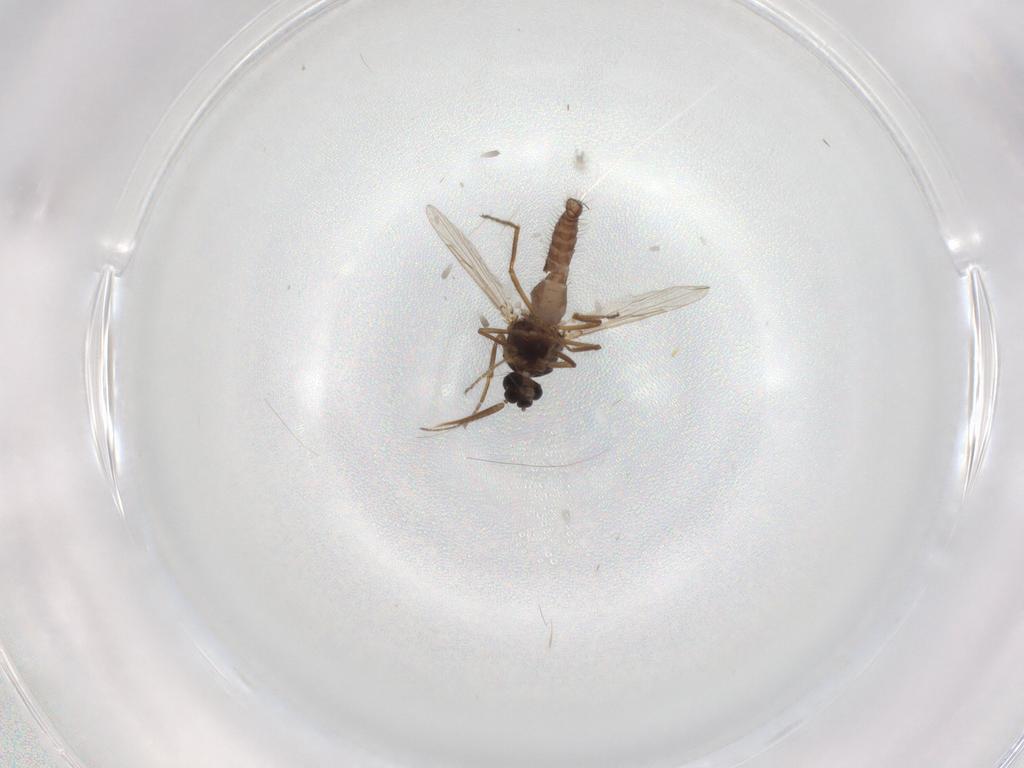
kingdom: Animalia
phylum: Arthropoda
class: Insecta
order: Diptera
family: Ceratopogonidae
